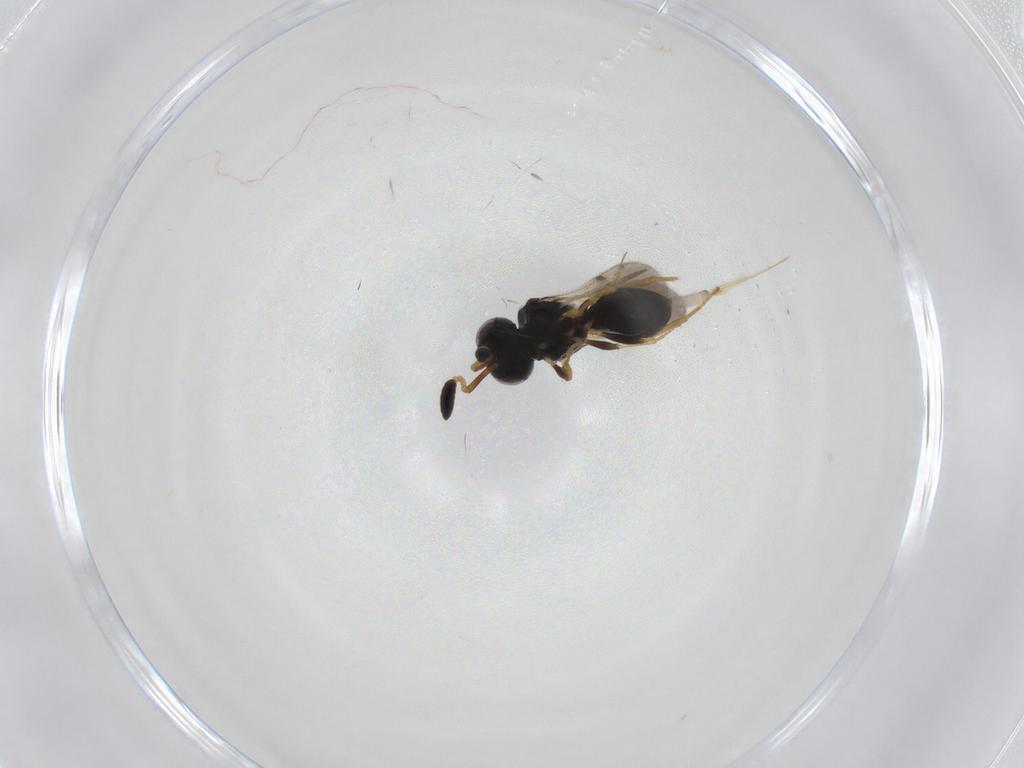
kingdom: Animalia
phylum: Arthropoda
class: Insecta
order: Hymenoptera
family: Scelionidae
